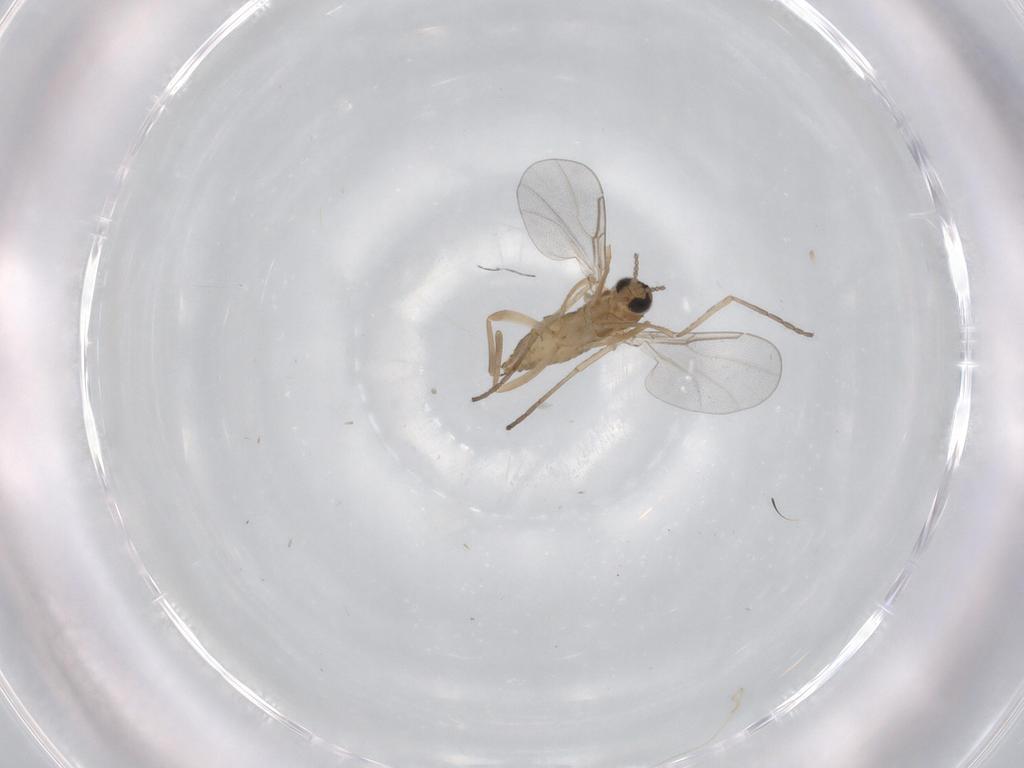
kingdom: Animalia
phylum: Arthropoda
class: Insecta
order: Diptera
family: Cecidomyiidae
